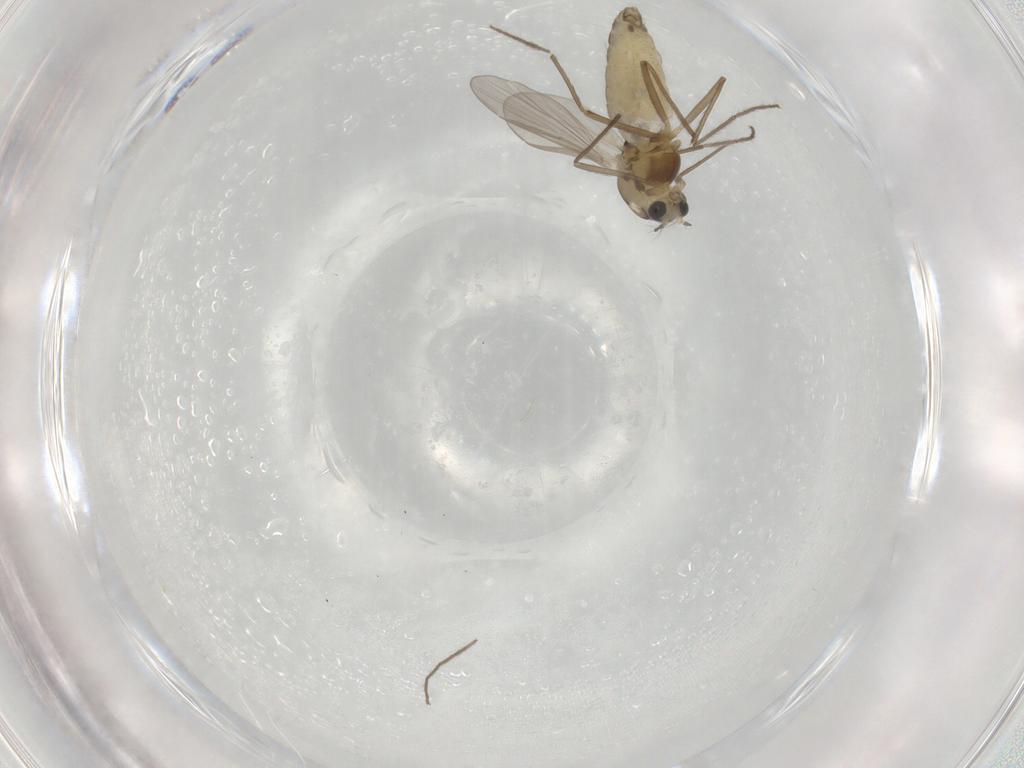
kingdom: Animalia
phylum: Arthropoda
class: Insecta
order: Diptera
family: Chironomidae
